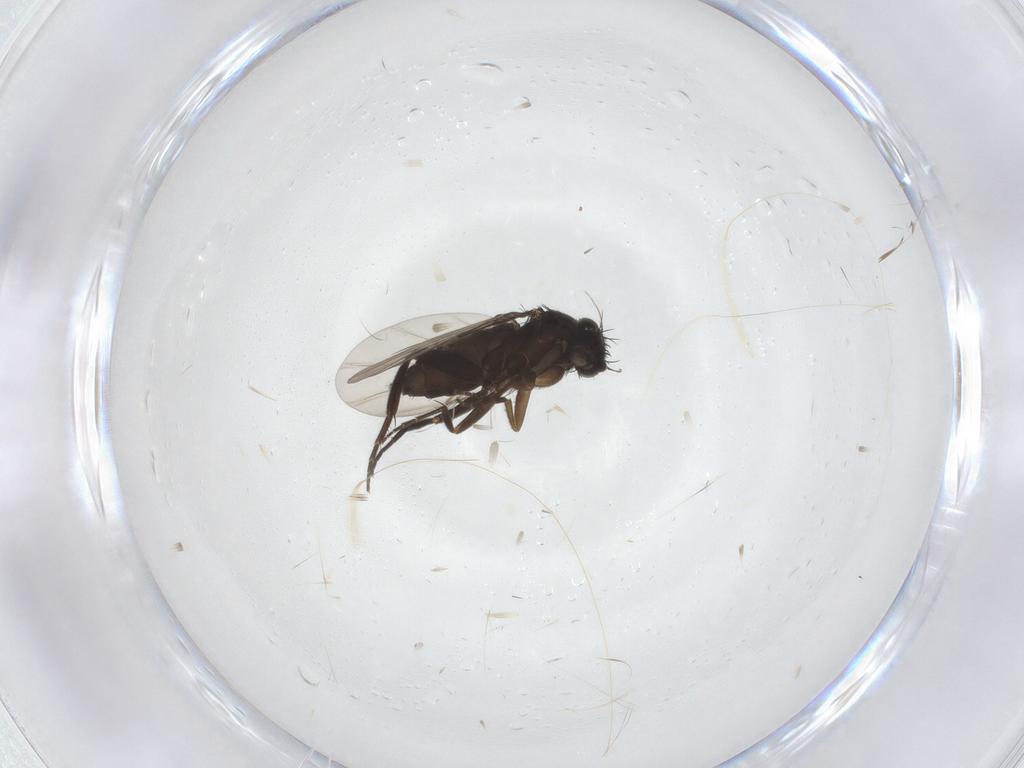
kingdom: Animalia
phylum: Arthropoda
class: Insecta
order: Diptera
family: Phoridae
